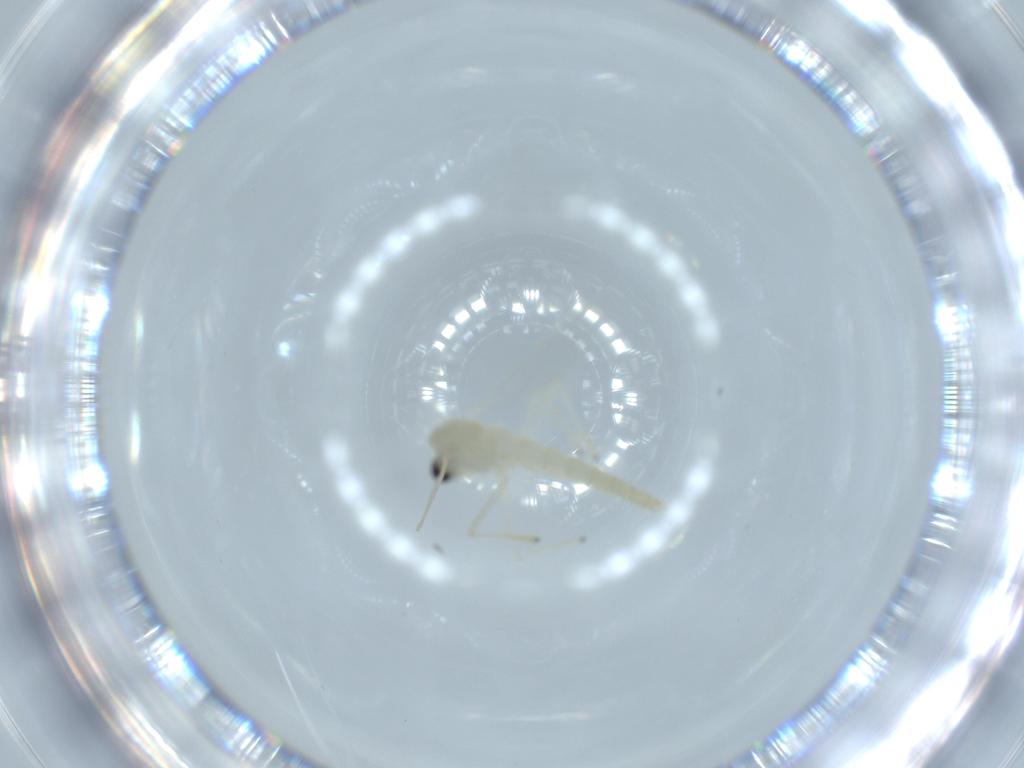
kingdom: Animalia
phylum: Arthropoda
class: Insecta
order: Diptera
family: Chironomidae
